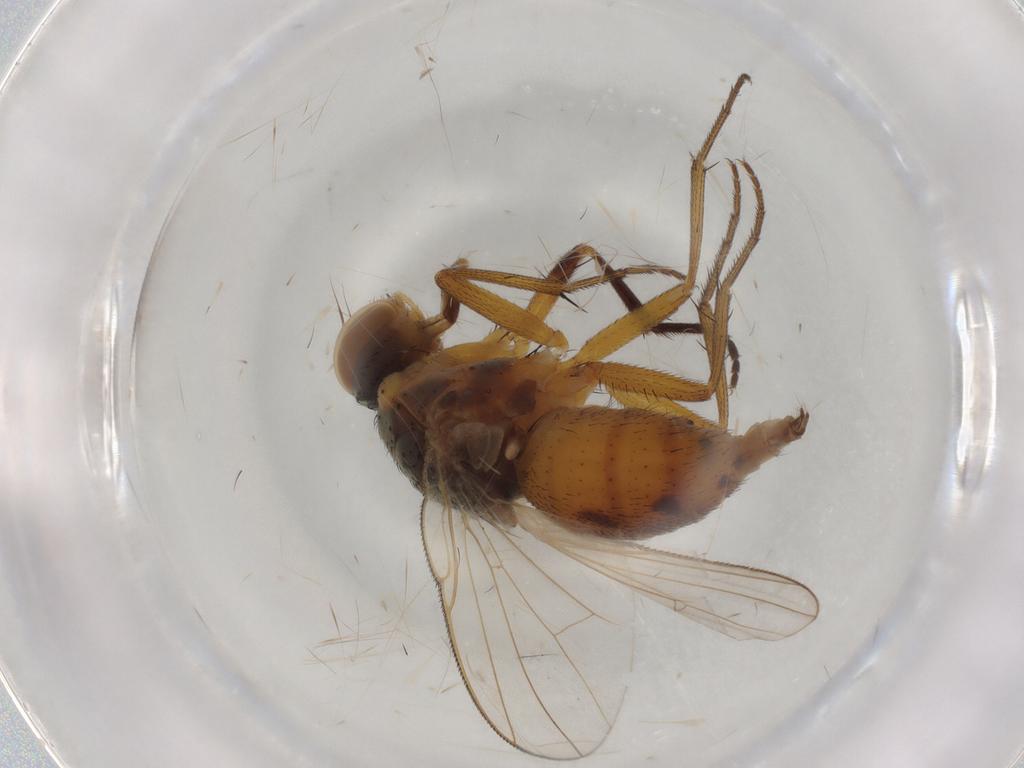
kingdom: Animalia
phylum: Arthropoda
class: Insecta
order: Diptera
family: Muscidae
